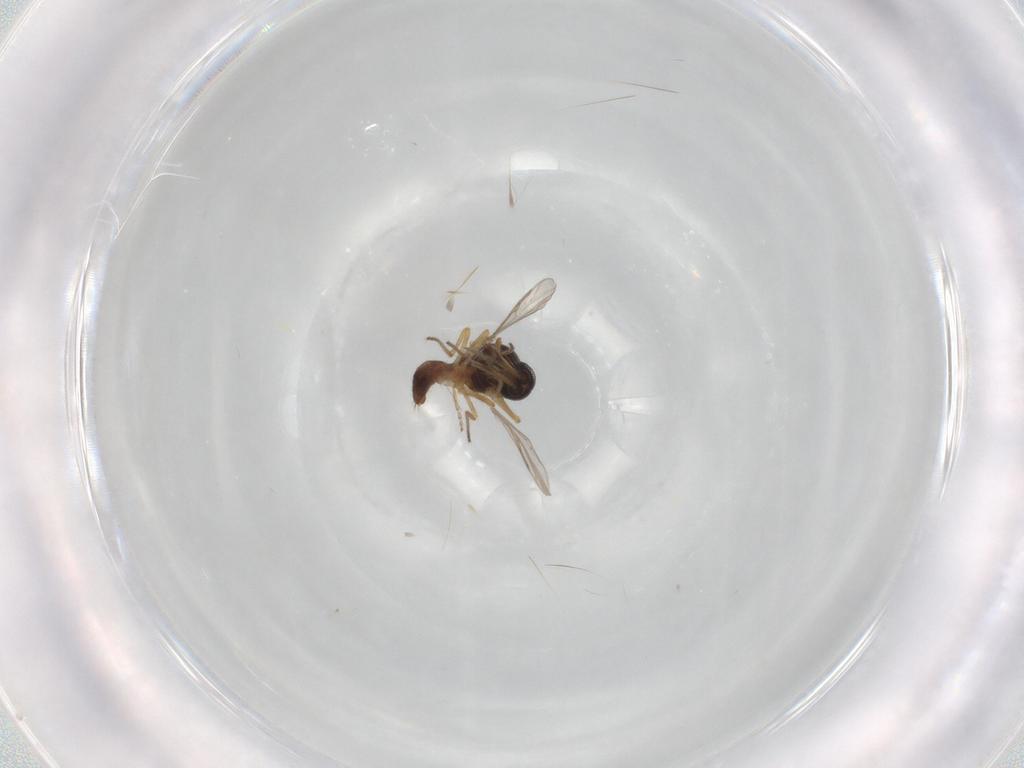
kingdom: Animalia
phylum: Arthropoda
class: Insecta
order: Diptera
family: Ceratopogonidae
